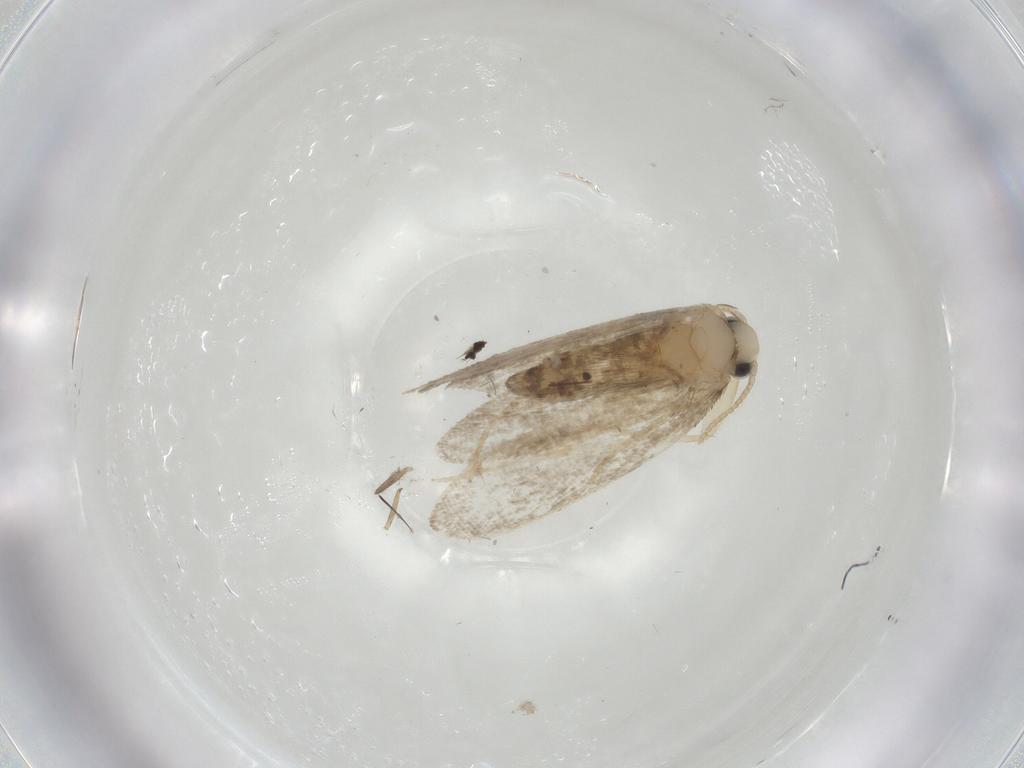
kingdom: Animalia
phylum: Arthropoda
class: Insecta
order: Lepidoptera
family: Psychidae
